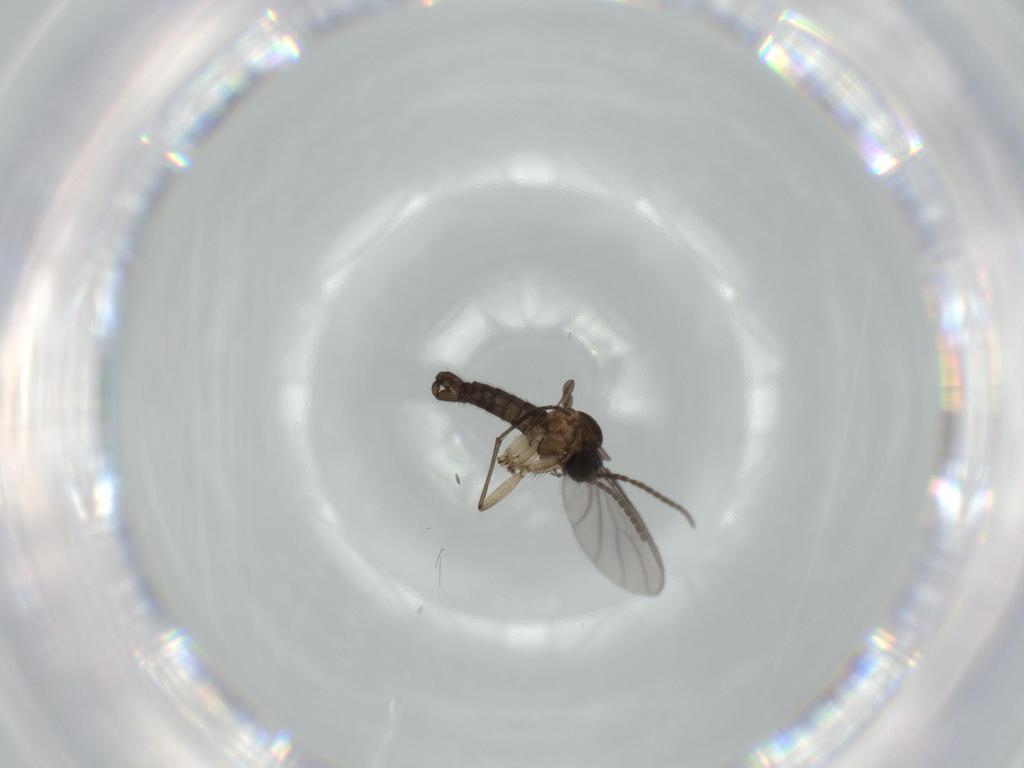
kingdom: Animalia
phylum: Arthropoda
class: Insecta
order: Diptera
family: Sciaridae
